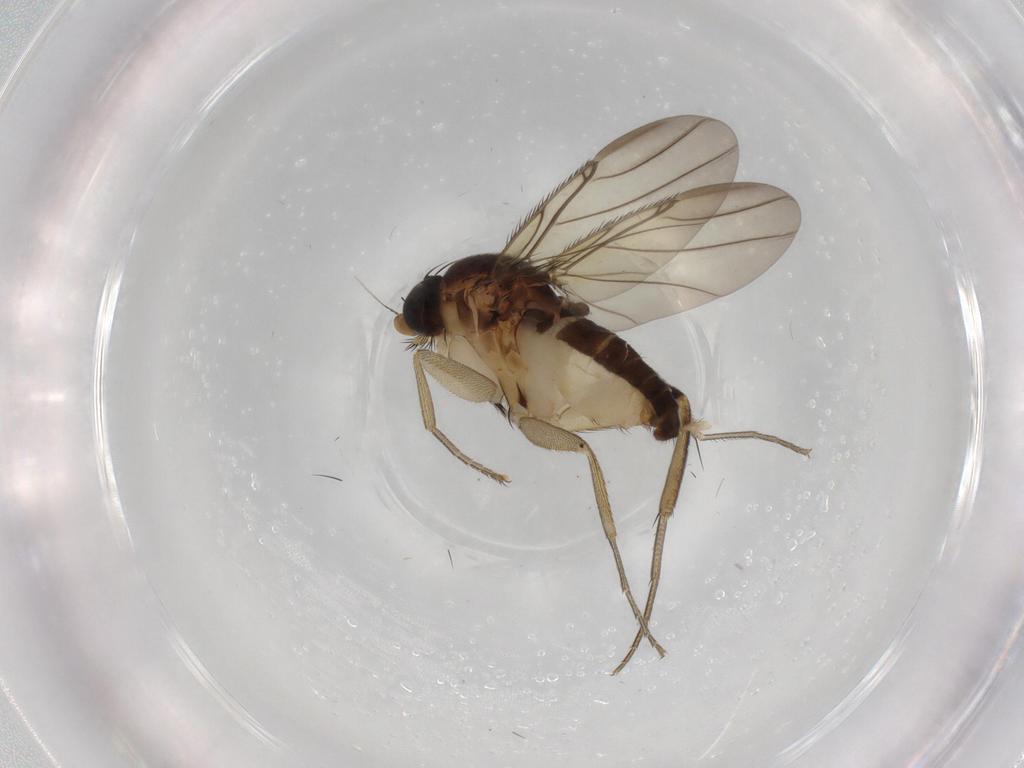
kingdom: Animalia
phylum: Arthropoda
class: Insecta
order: Diptera
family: Phoridae
